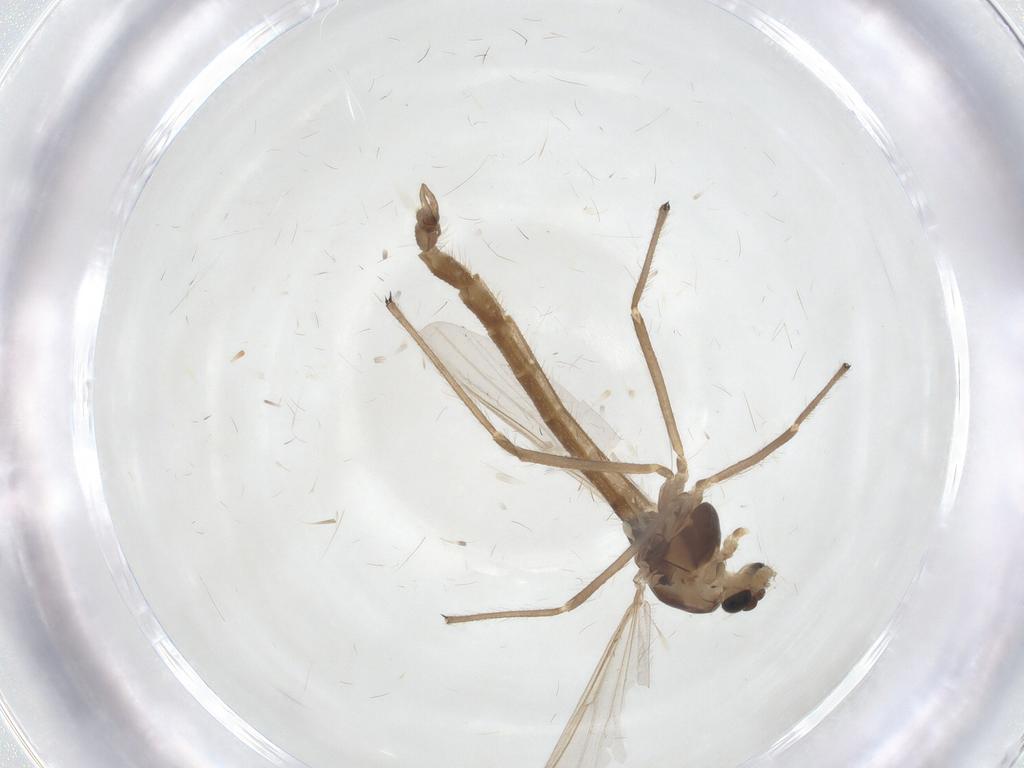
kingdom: Animalia
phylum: Arthropoda
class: Insecta
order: Diptera
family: Chironomidae
